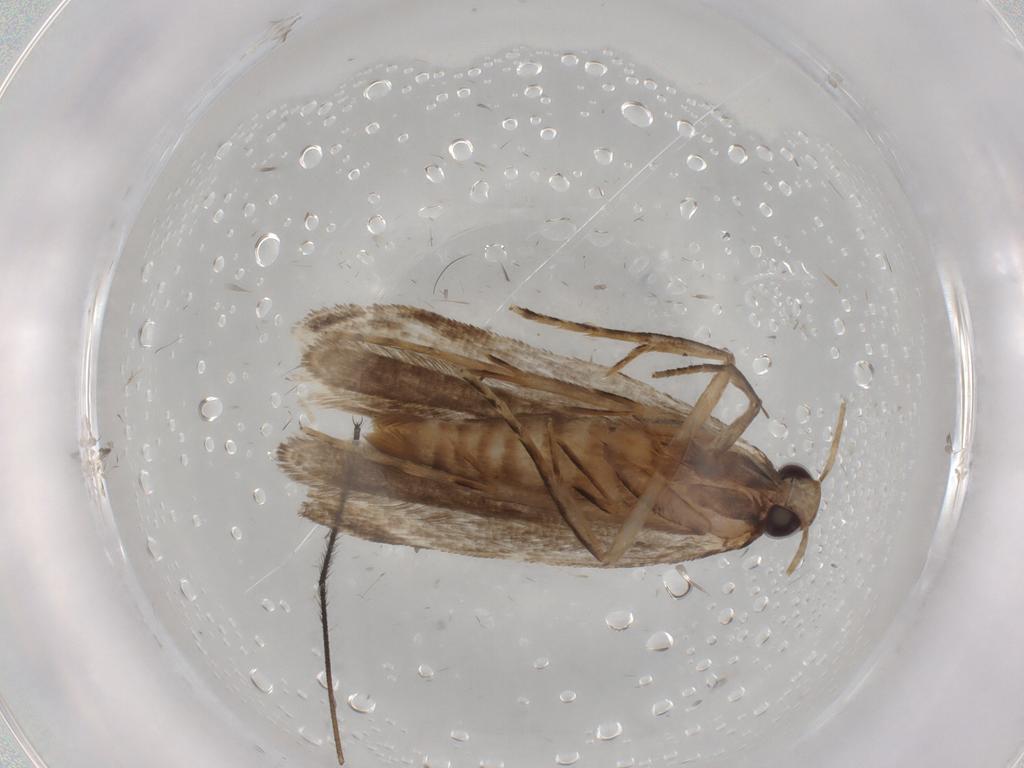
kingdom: Animalia
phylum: Arthropoda
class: Insecta
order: Lepidoptera
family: Gelechiidae
